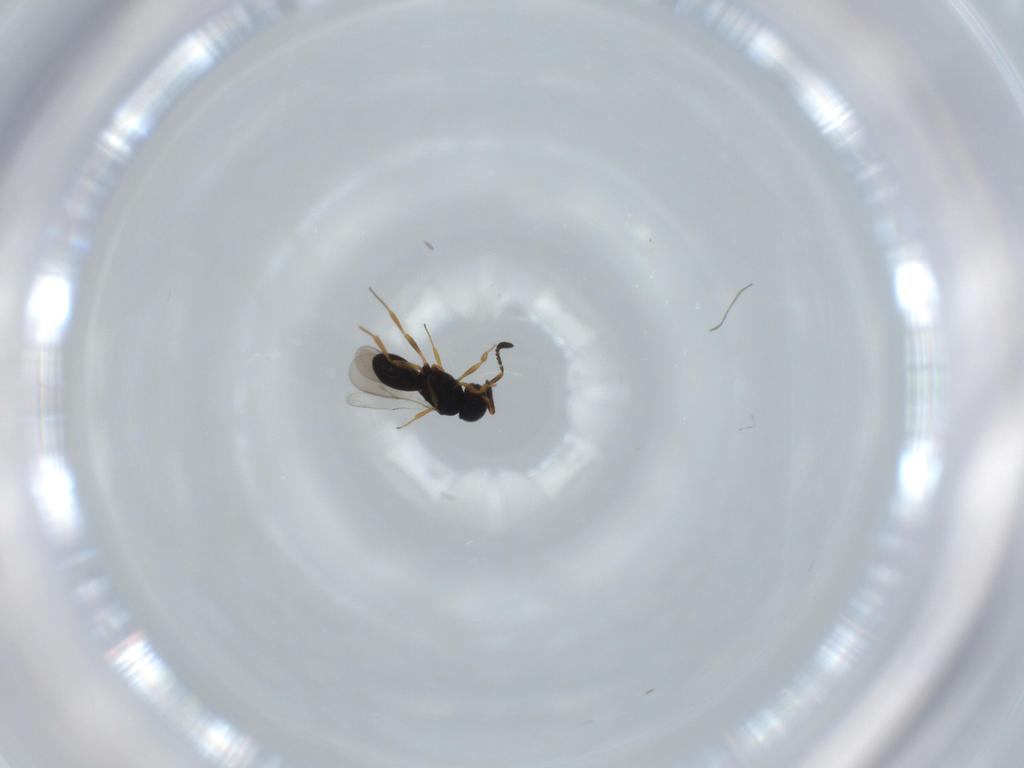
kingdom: Animalia
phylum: Arthropoda
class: Insecta
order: Hymenoptera
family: Scelionidae
